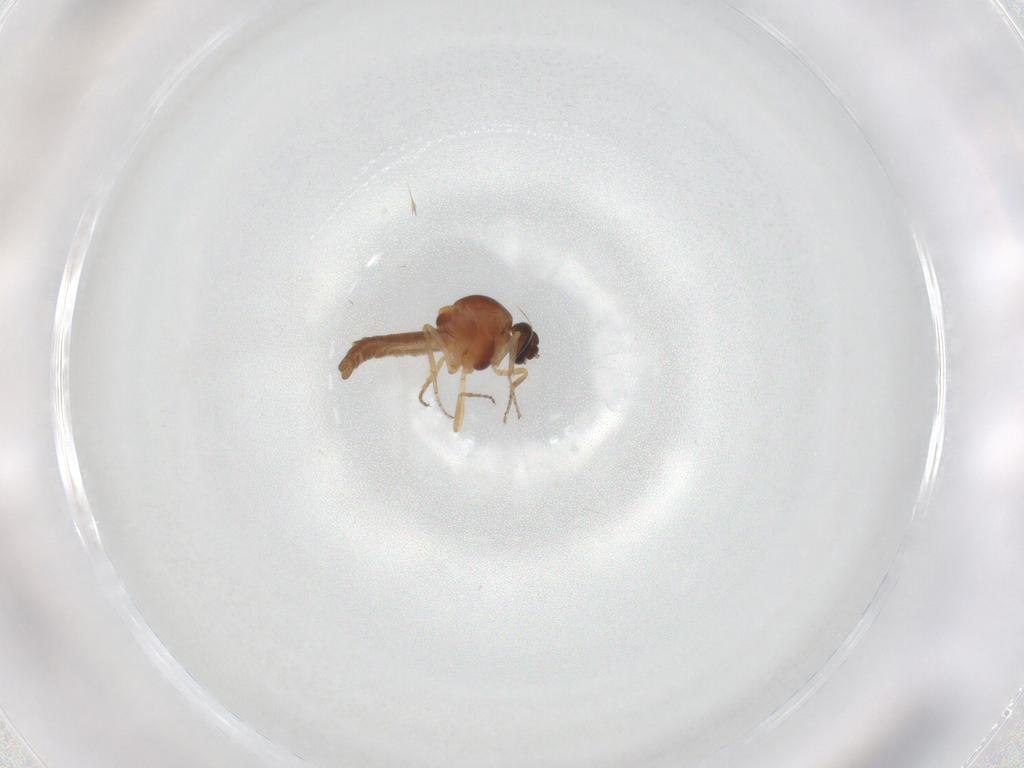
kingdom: Animalia
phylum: Arthropoda
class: Insecta
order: Diptera
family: Ceratopogonidae
